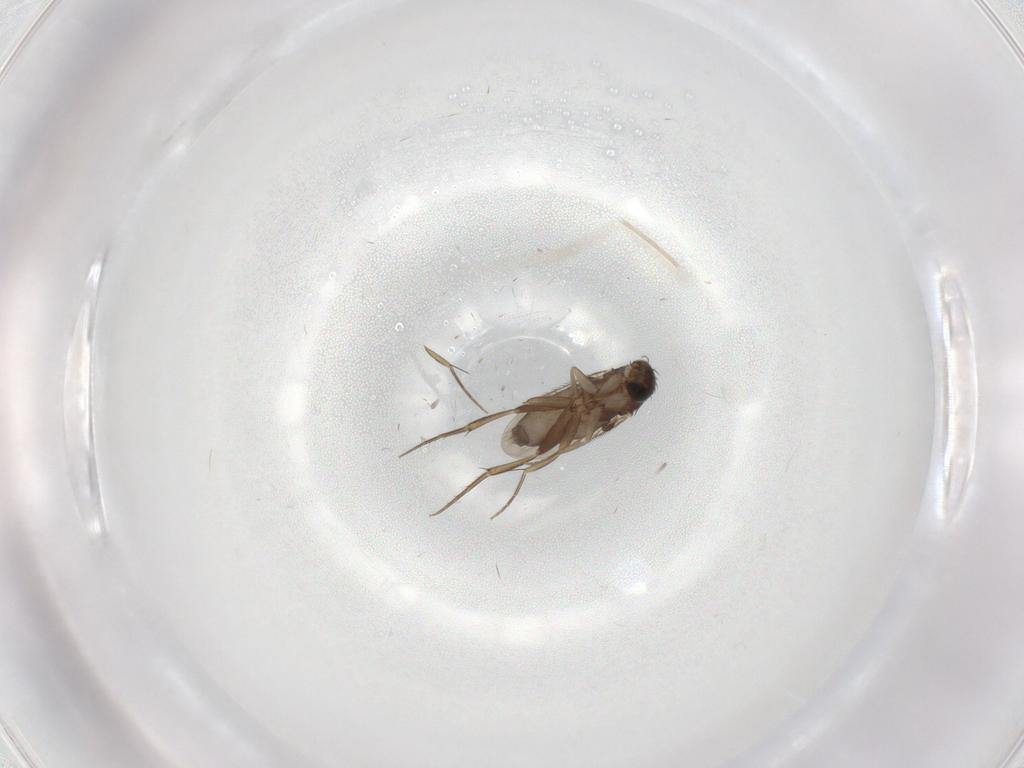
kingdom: Animalia
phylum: Arthropoda
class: Insecta
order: Diptera
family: Phoridae
